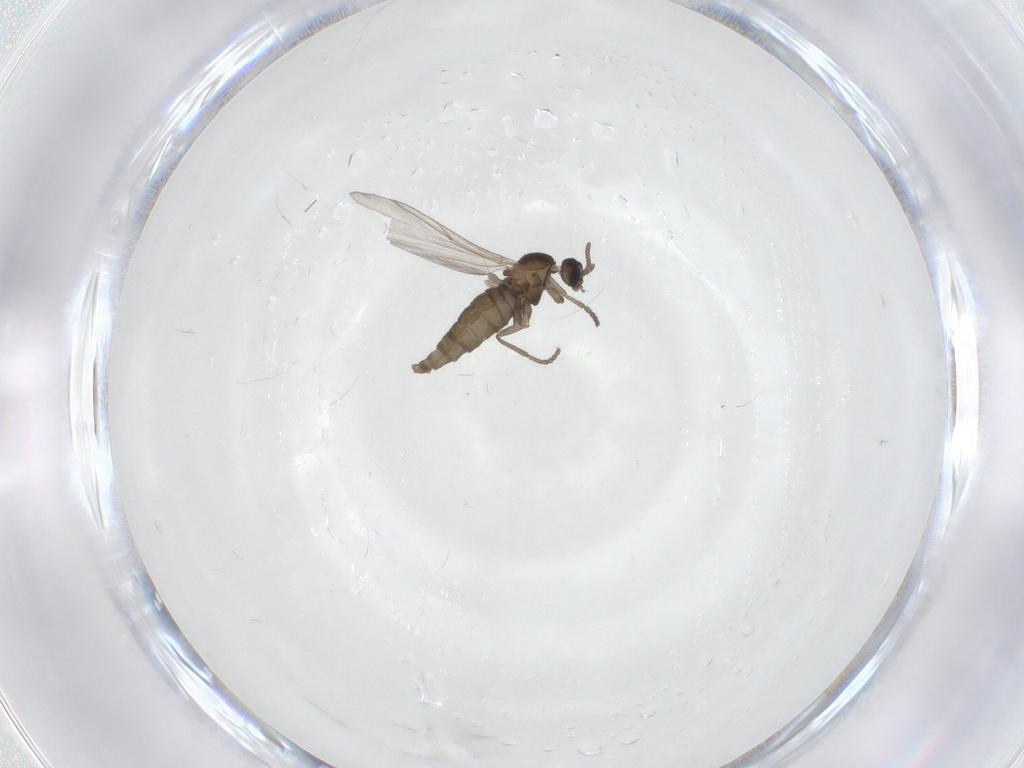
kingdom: Animalia
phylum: Arthropoda
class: Insecta
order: Diptera
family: Cecidomyiidae
